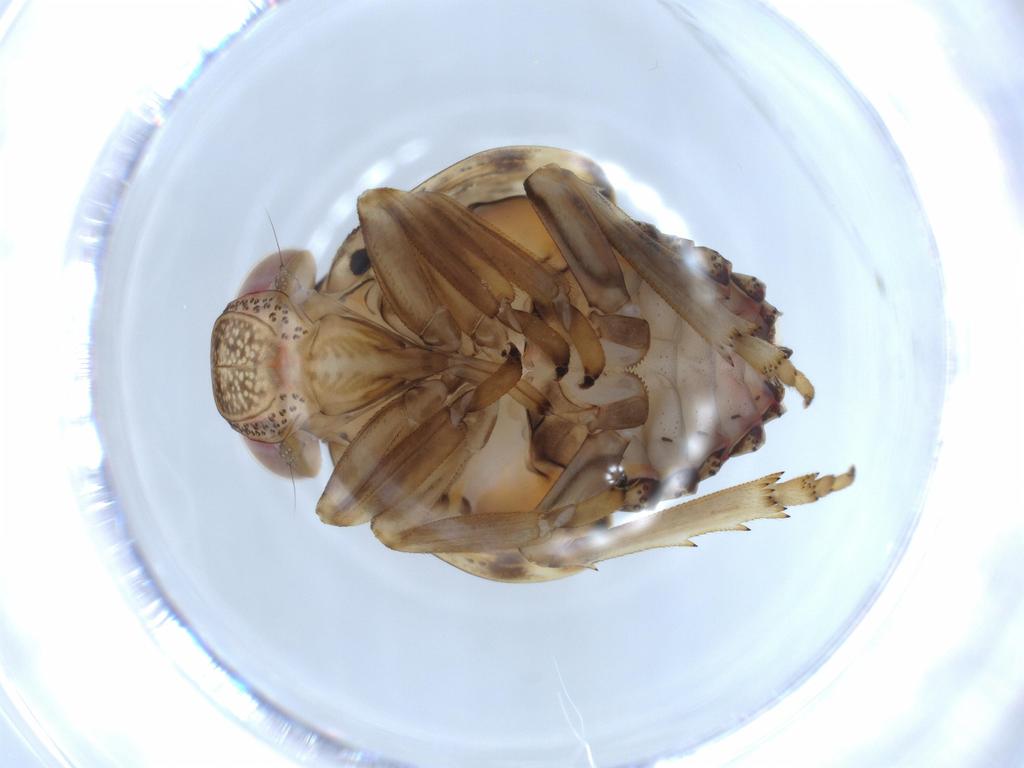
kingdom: Animalia
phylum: Arthropoda
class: Insecta
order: Hemiptera
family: Issidae
